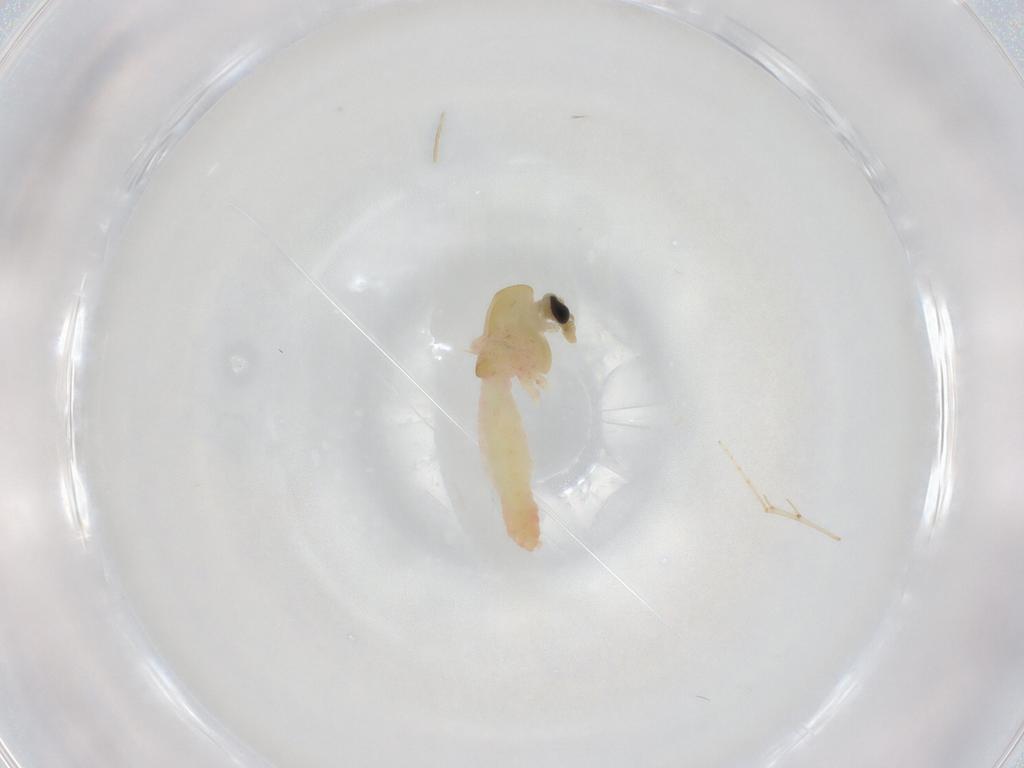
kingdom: Animalia
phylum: Arthropoda
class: Insecta
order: Diptera
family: Chironomidae
